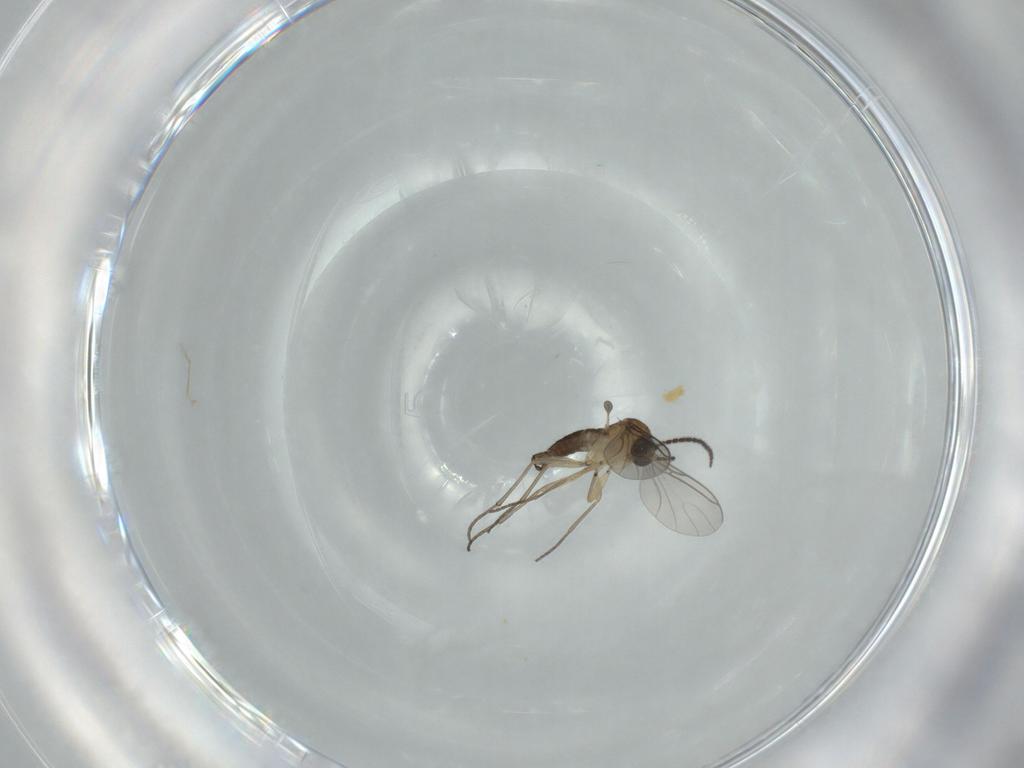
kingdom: Animalia
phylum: Arthropoda
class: Insecta
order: Diptera
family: Sciaridae
